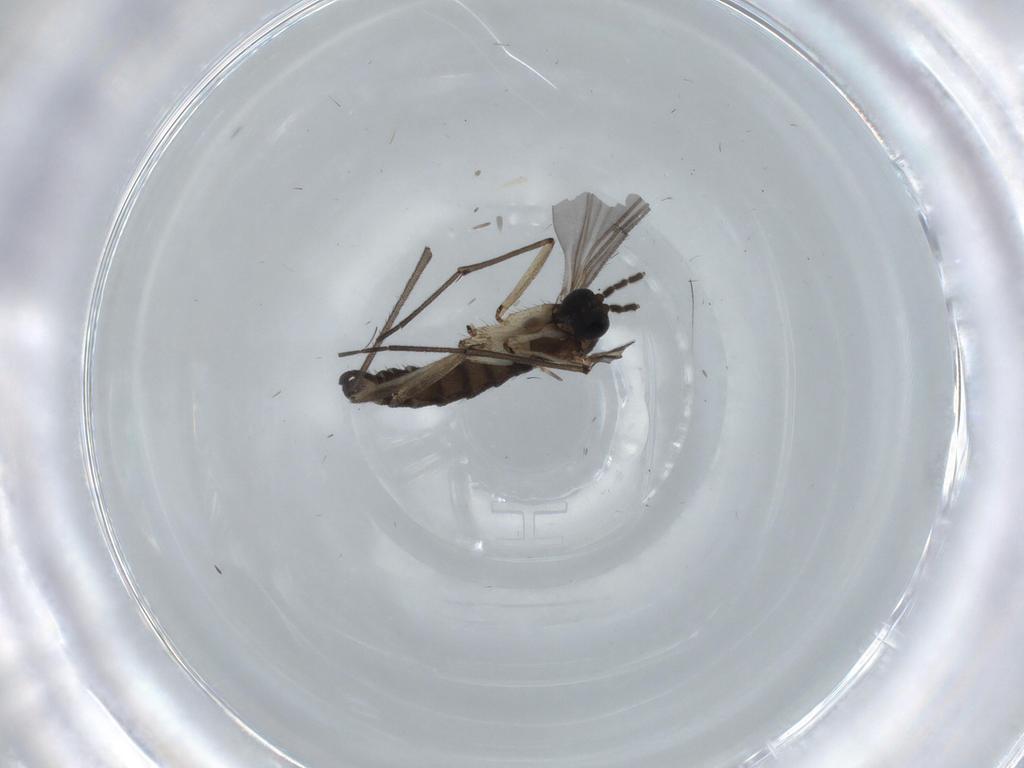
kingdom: Animalia
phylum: Arthropoda
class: Insecta
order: Diptera
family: Sciaridae
